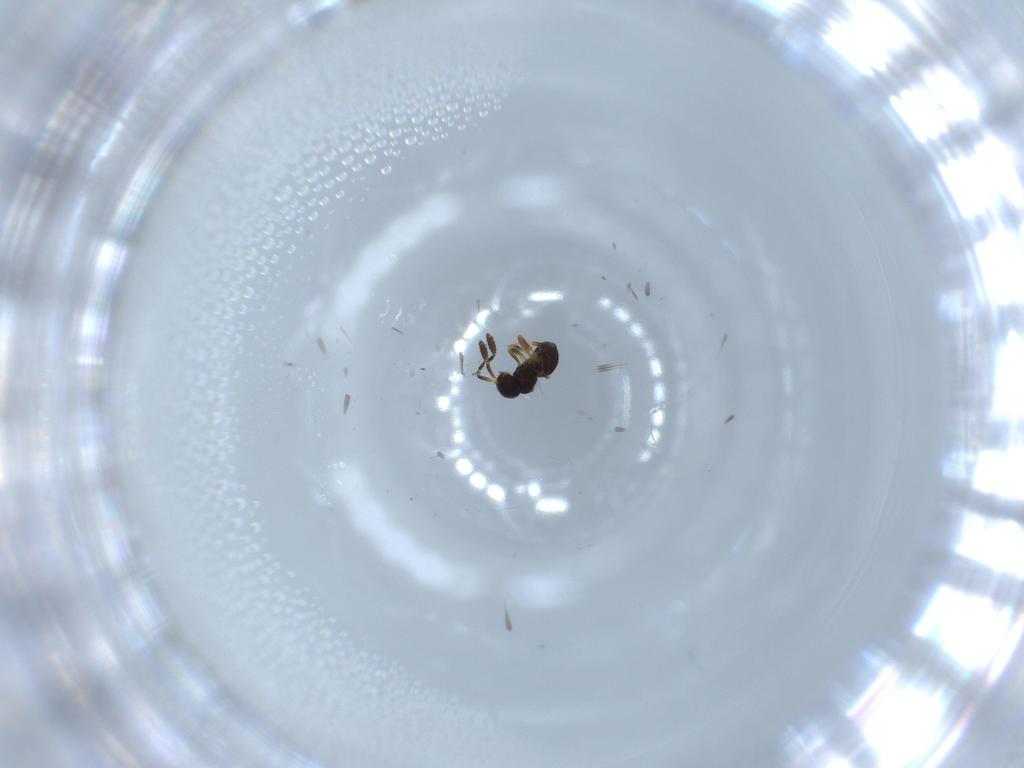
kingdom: Animalia
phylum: Arthropoda
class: Insecta
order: Hymenoptera
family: Scelionidae
